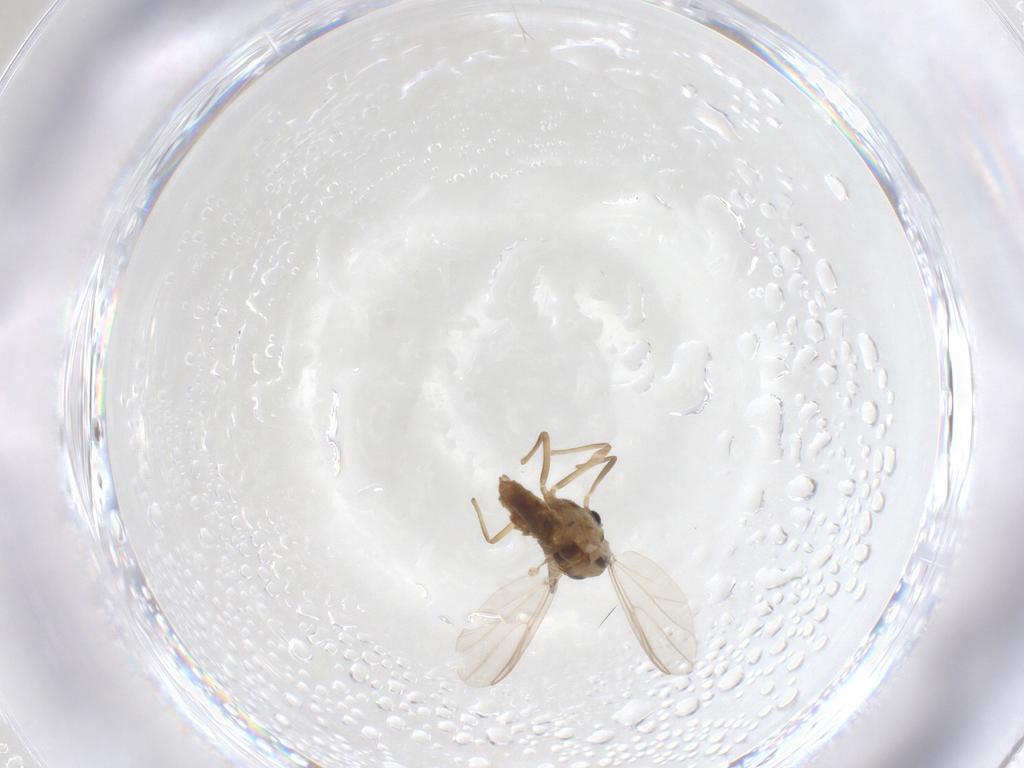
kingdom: Animalia
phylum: Arthropoda
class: Insecta
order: Diptera
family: Chironomidae
